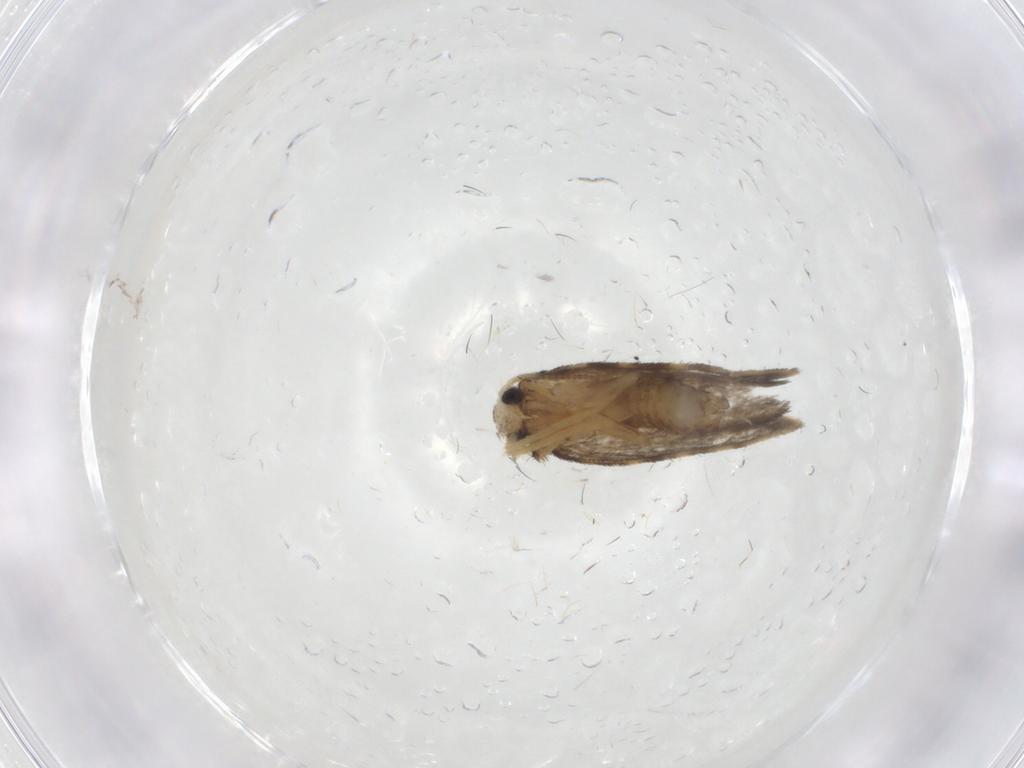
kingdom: Animalia
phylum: Arthropoda
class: Insecta
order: Lepidoptera
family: Psychidae
